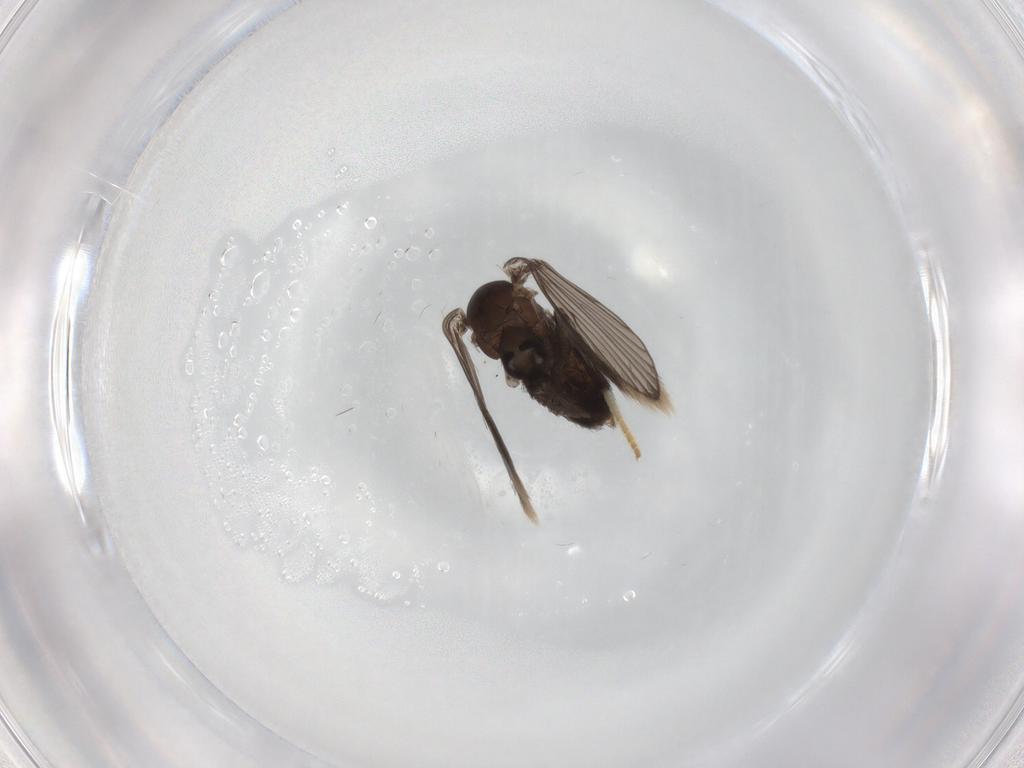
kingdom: Animalia
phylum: Arthropoda
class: Insecta
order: Diptera
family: Psychodidae
